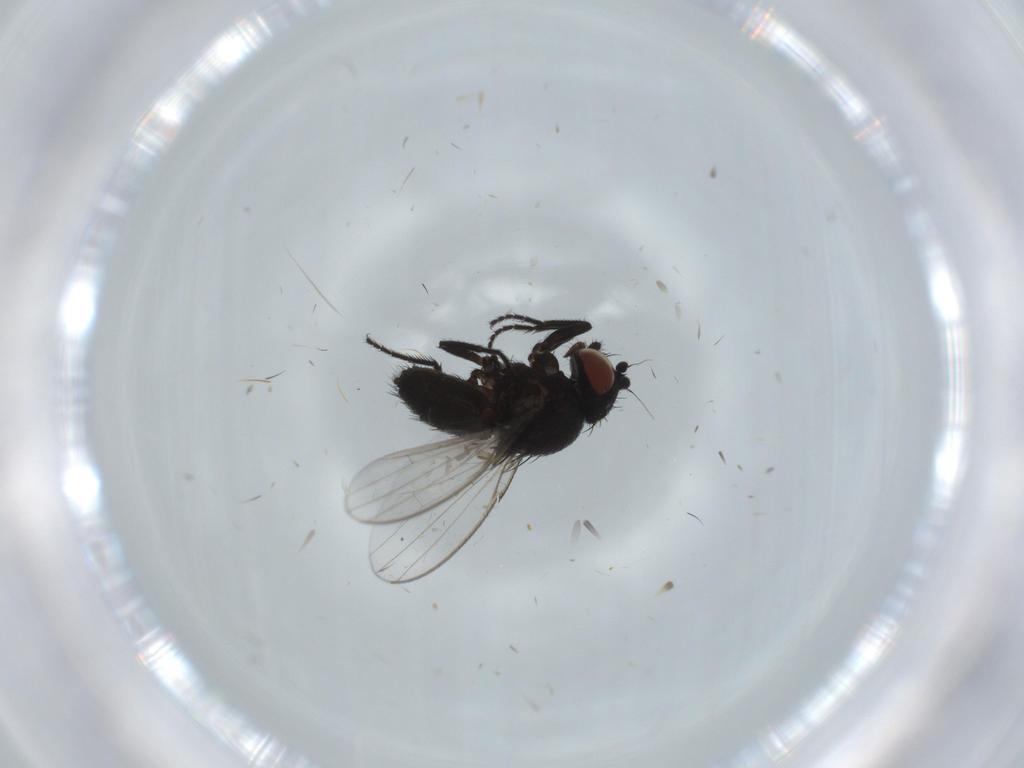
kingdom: Animalia
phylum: Arthropoda
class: Insecta
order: Diptera
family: Milichiidae
